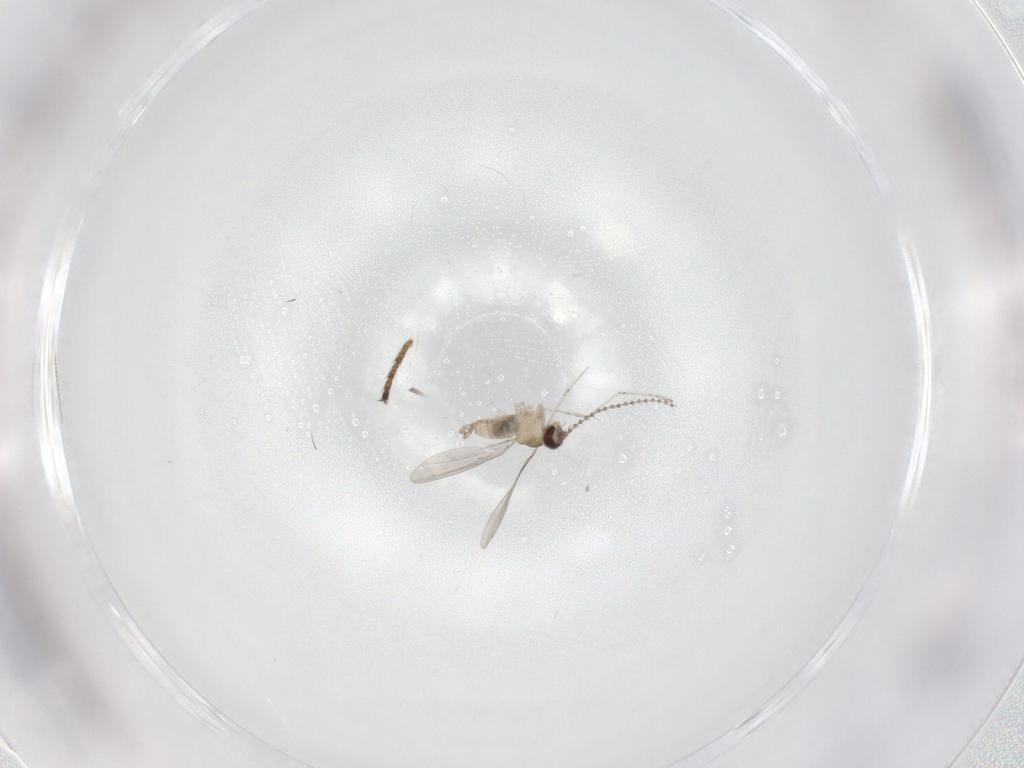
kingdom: Animalia
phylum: Arthropoda
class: Insecta
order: Diptera
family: Chironomidae
